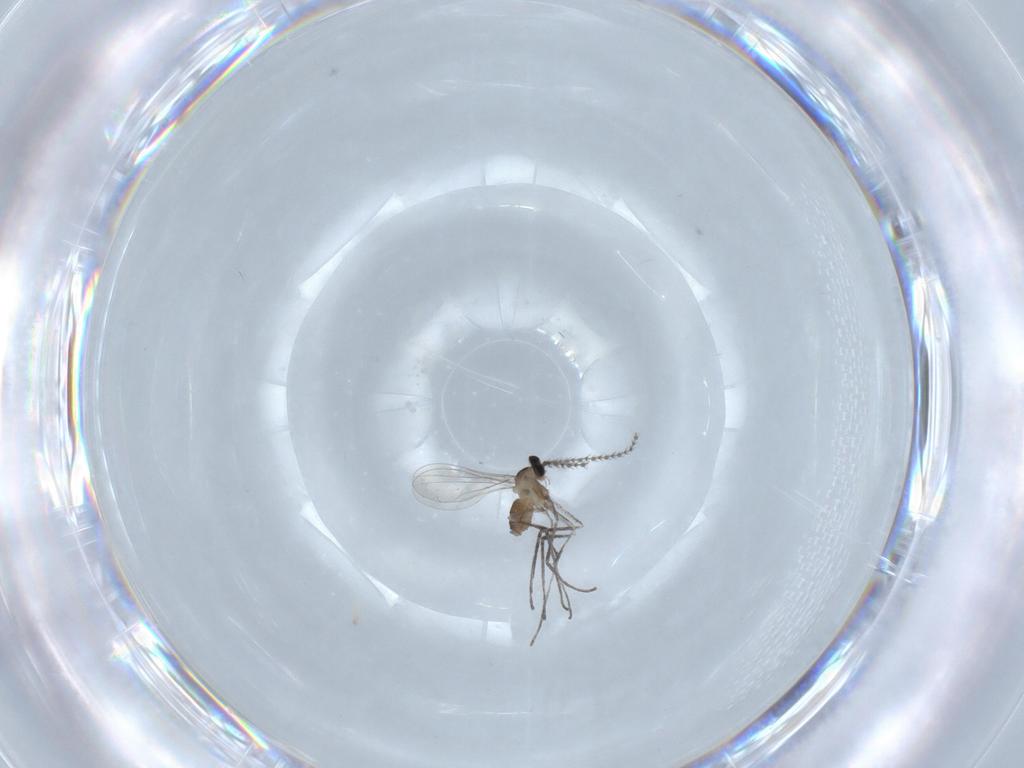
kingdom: Animalia
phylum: Arthropoda
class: Insecta
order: Diptera
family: Cecidomyiidae
